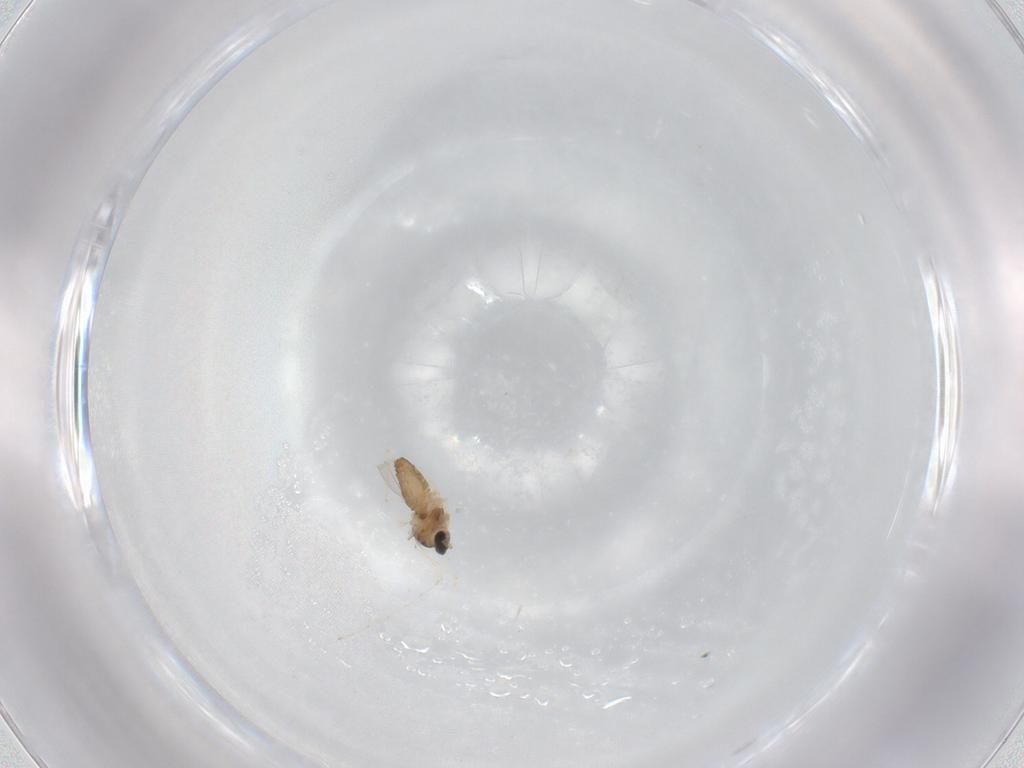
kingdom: Animalia
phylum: Arthropoda
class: Insecta
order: Diptera
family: Cecidomyiidae
